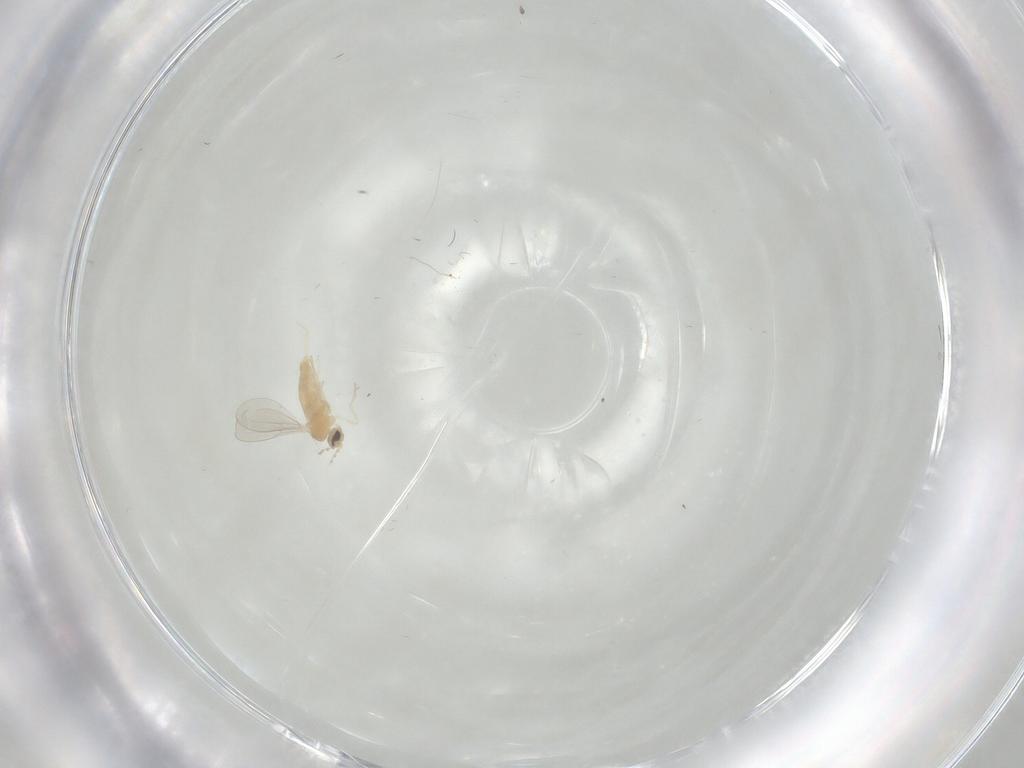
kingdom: Animalia
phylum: Arthropoda
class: Insecta
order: Diptera
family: Cecidomyiidae
